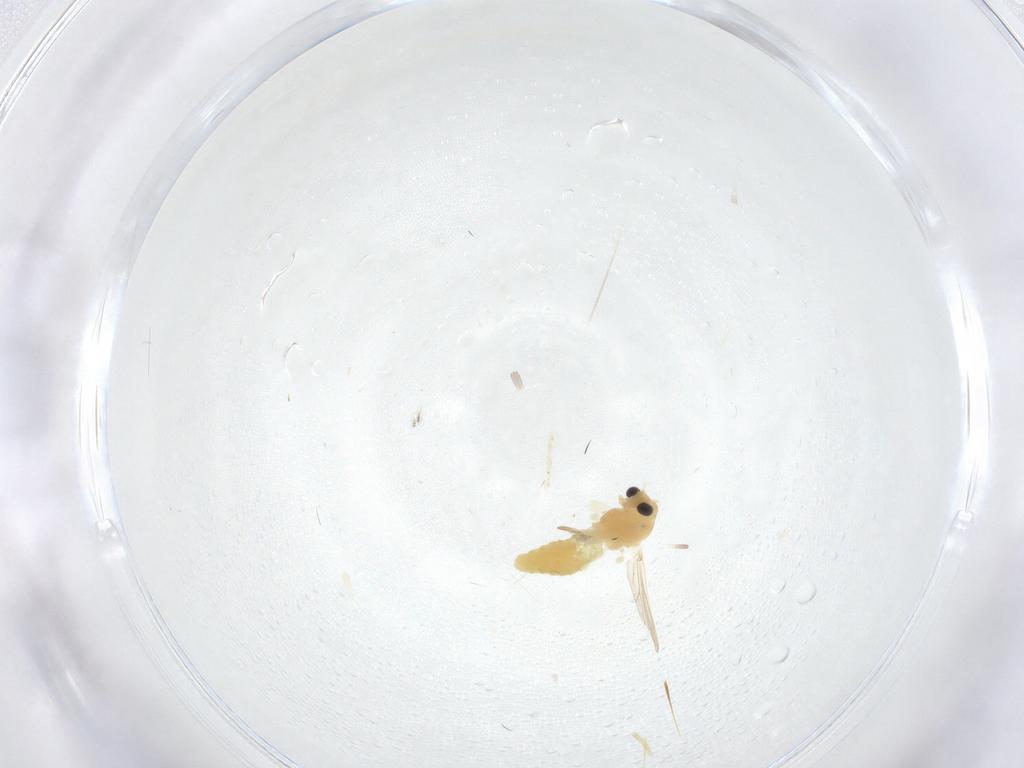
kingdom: Animalia
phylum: Arthropoda
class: Insecta
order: Diptera
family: Chironomidae
